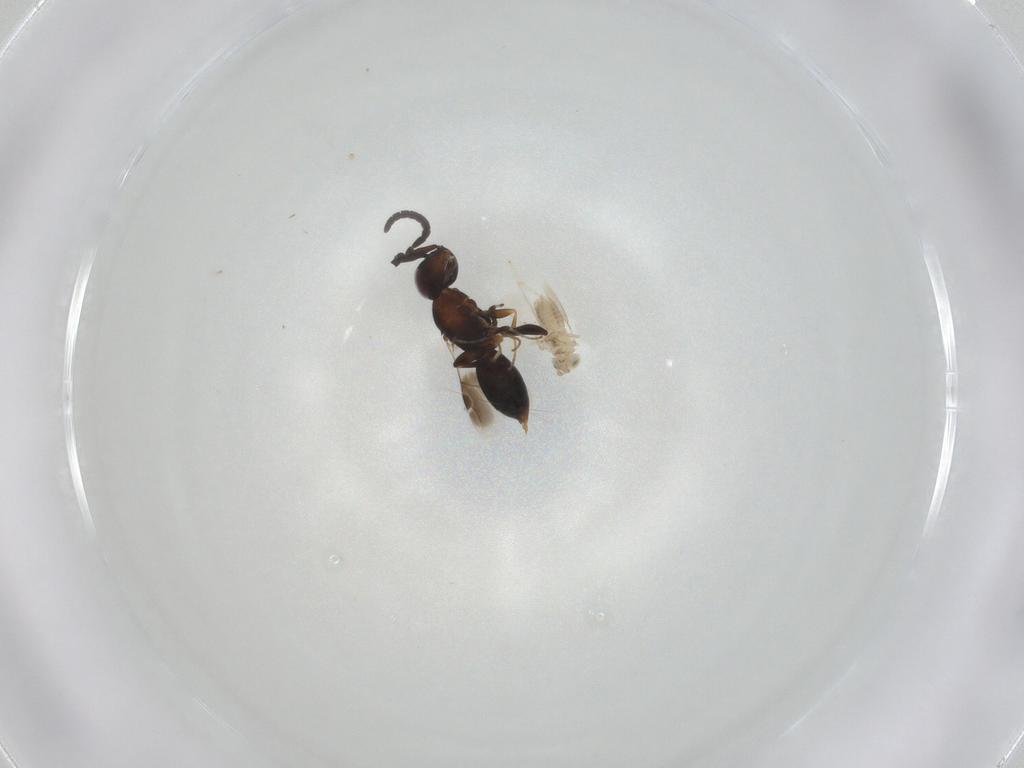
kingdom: Animalia
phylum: Arthropoda
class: Insecta
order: Hymenoptera
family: Megaspilidae
